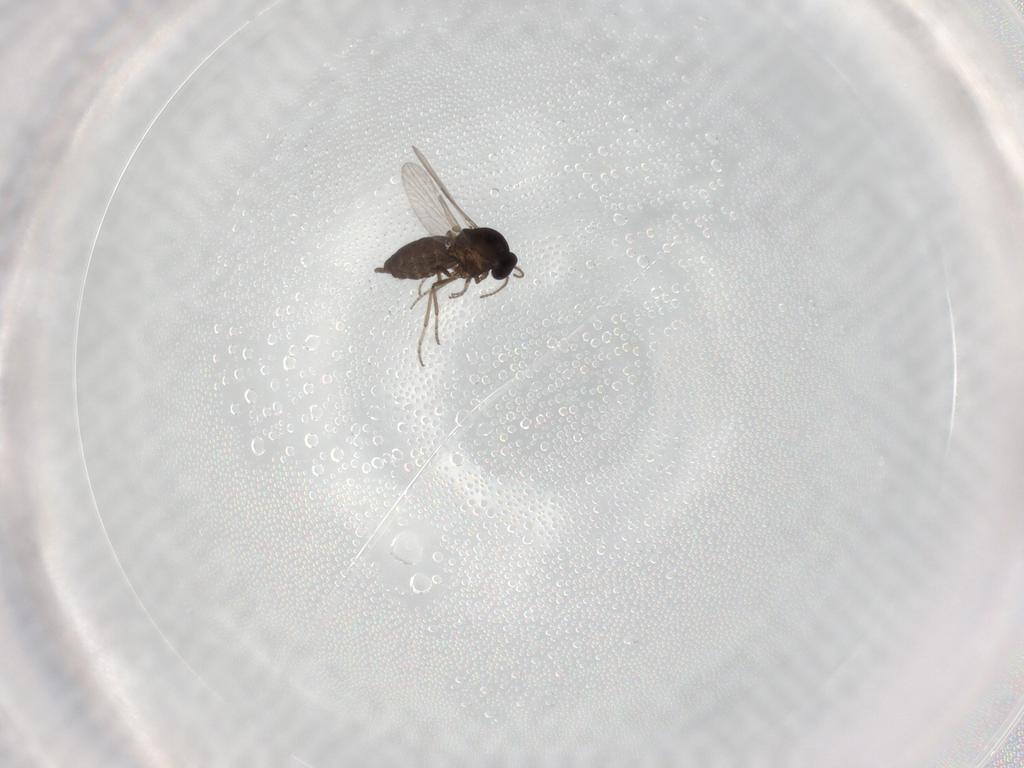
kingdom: Animalia
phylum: Arthropoda
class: Insecta
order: Diptera
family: Ceratopogonidae
